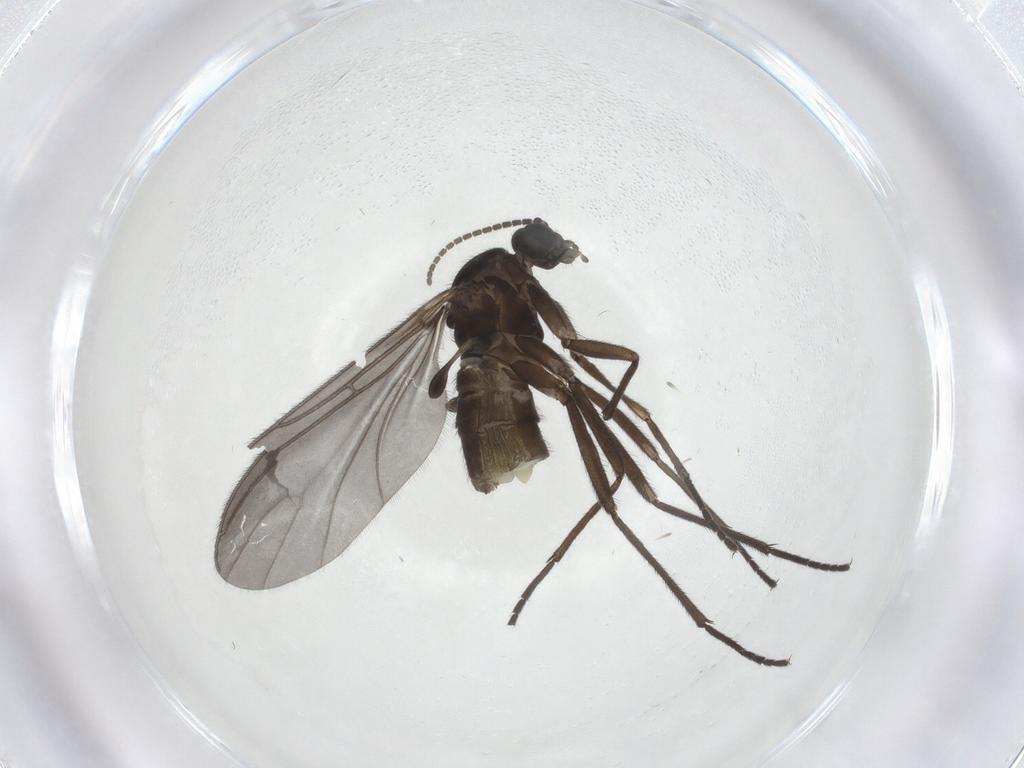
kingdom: Animalia
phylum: Arthropoda
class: Insecta
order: Diptera
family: Sciaridae
